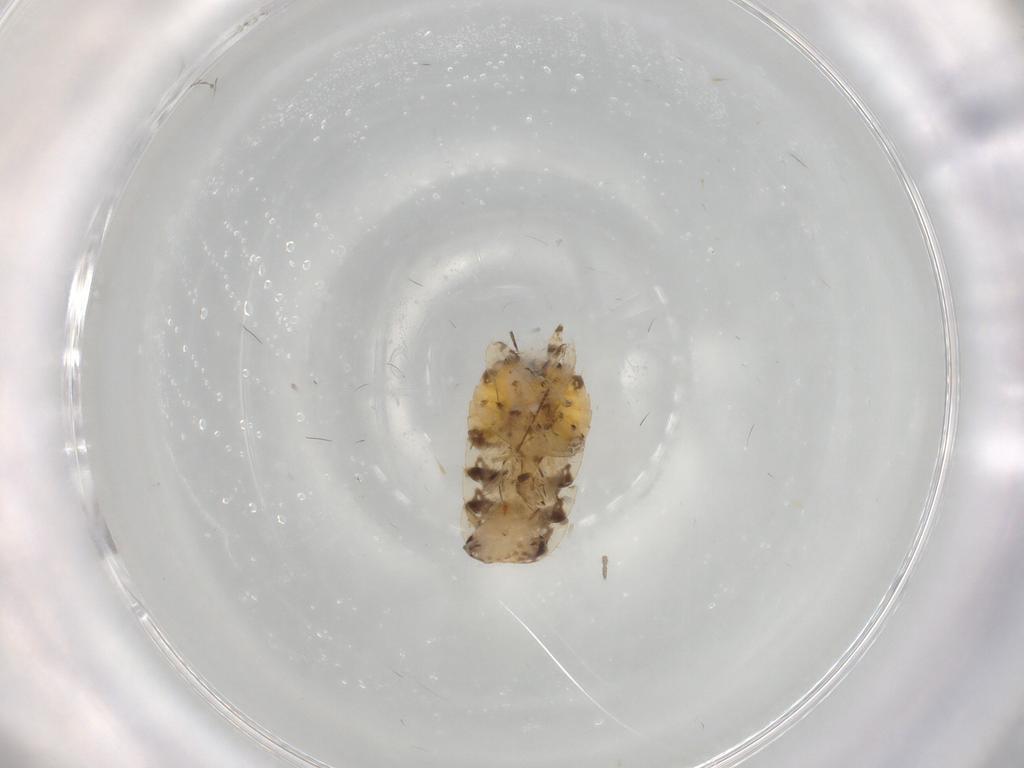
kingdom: Animalia
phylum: Arthropoda
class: Insecta
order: Blattodea
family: Ectobiidae
